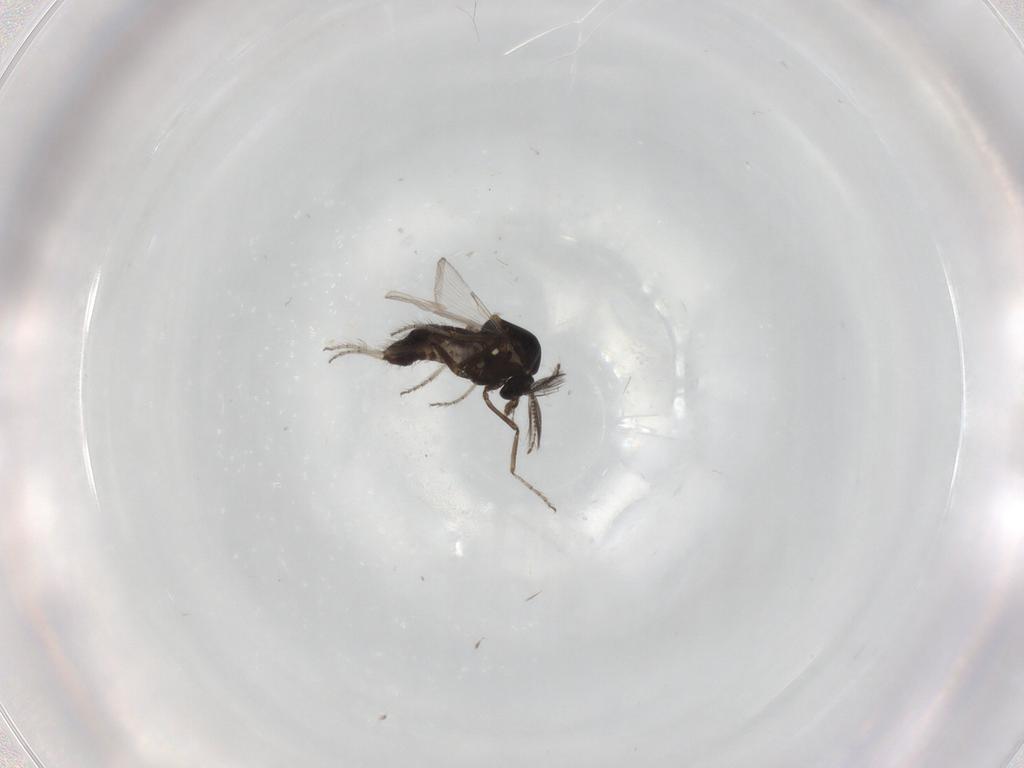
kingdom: Animalia
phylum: Arthropoda
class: Insecta
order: Diptera
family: Ceratopogonidae
